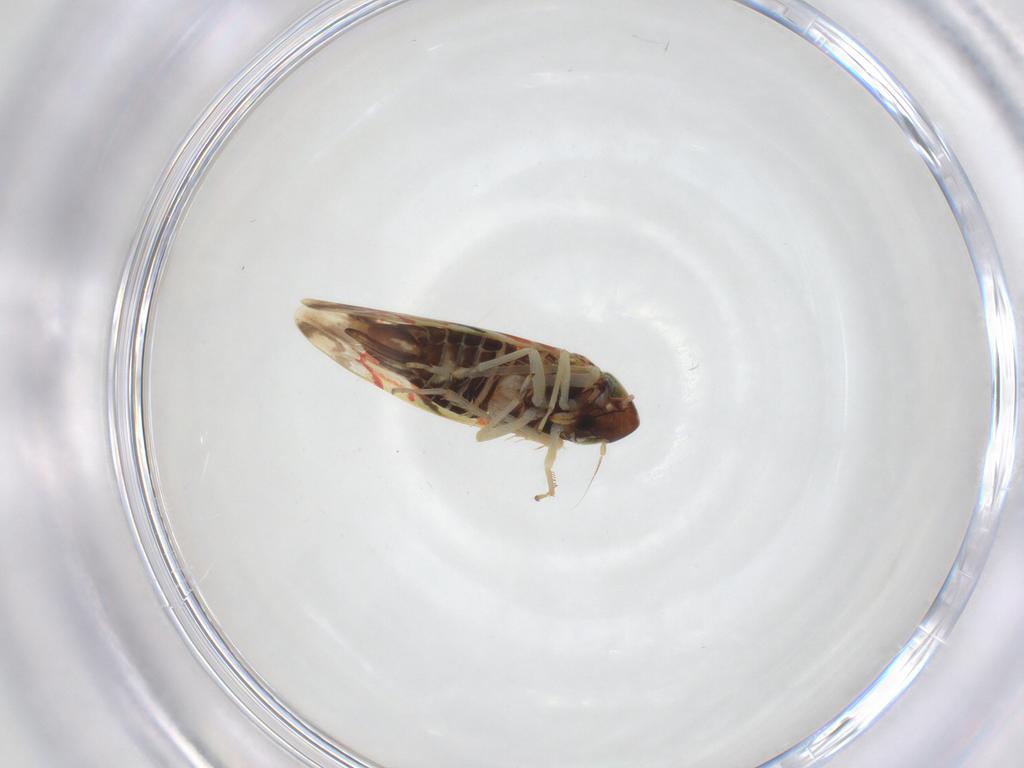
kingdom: Animalia
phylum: Arthropoda
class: Insecta
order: Hemiptera
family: Cicadellidae
